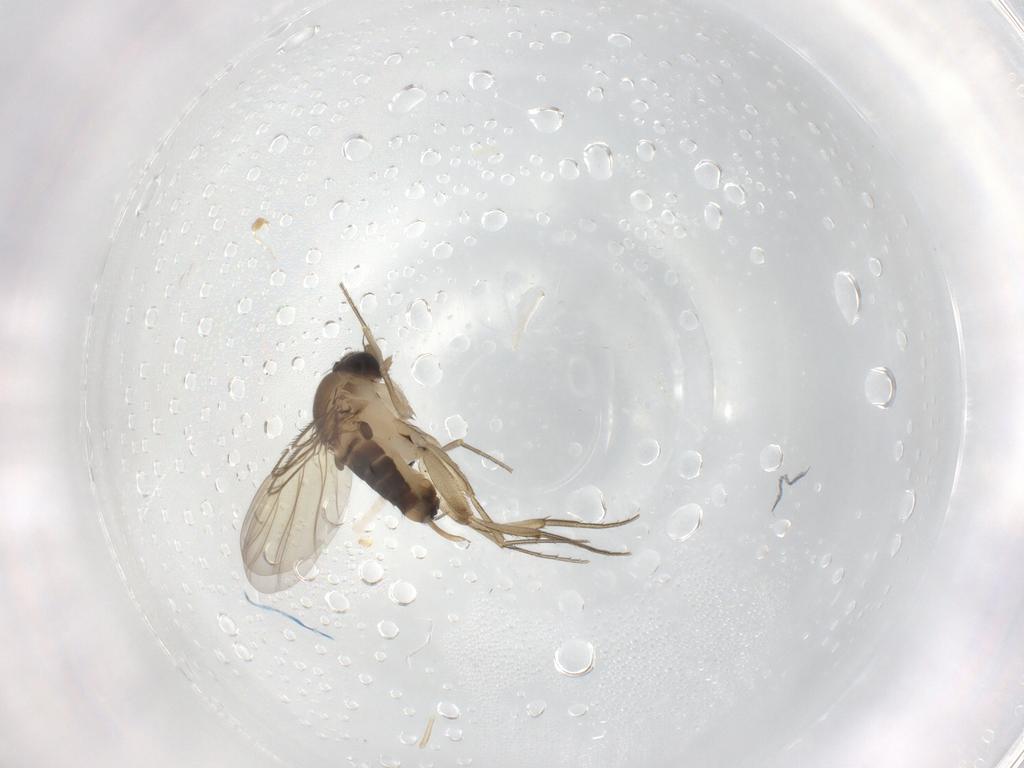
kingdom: Animalia
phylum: Arthropoda
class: Insecta
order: Diptera
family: Phoridae
